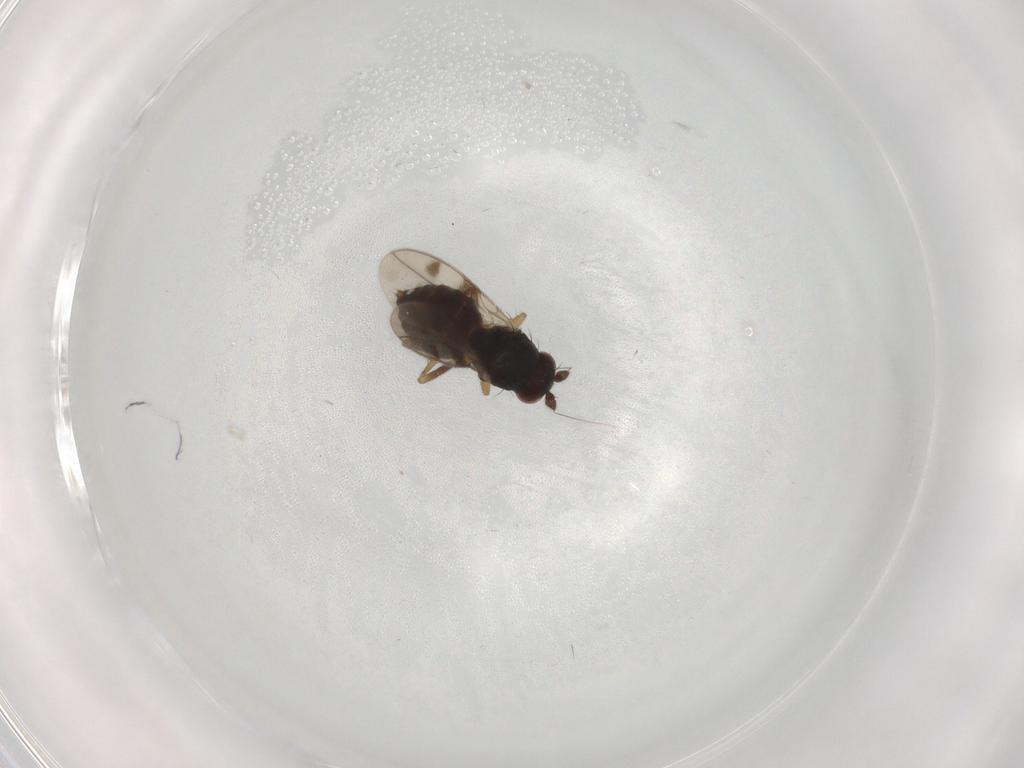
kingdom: Animalia
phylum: Arthropoda
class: Insecta
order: Diptera
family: Sphaeroceridae
